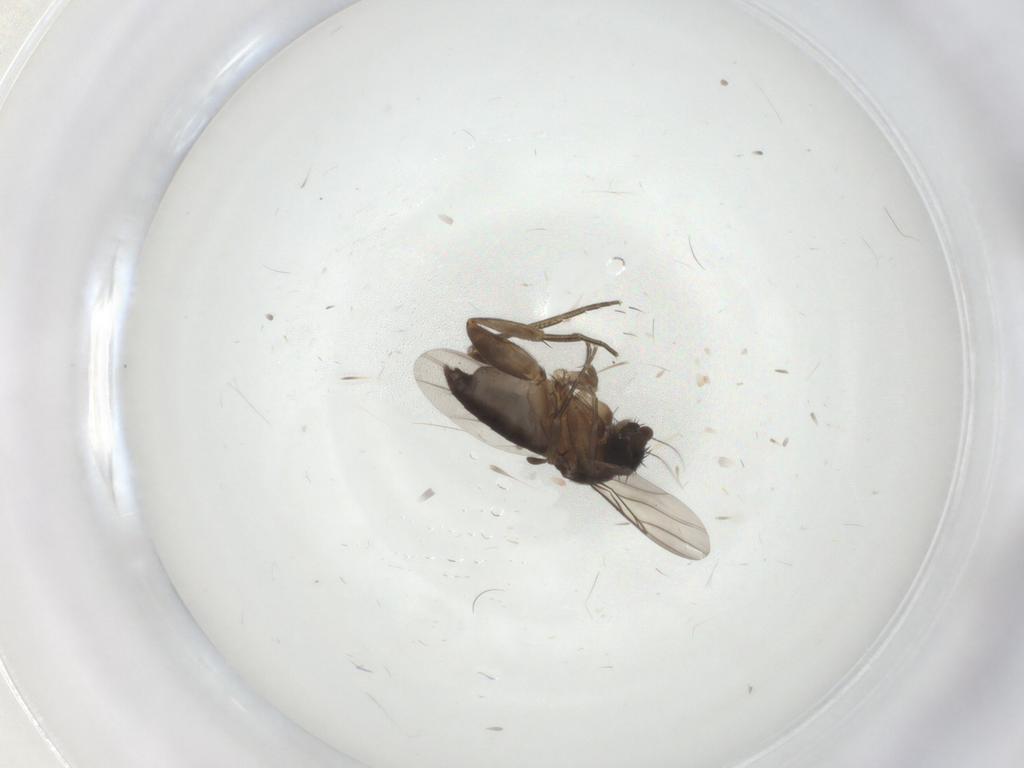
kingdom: Animalia
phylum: Arthropoda
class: Insecta
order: Diptera
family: Phoridae
